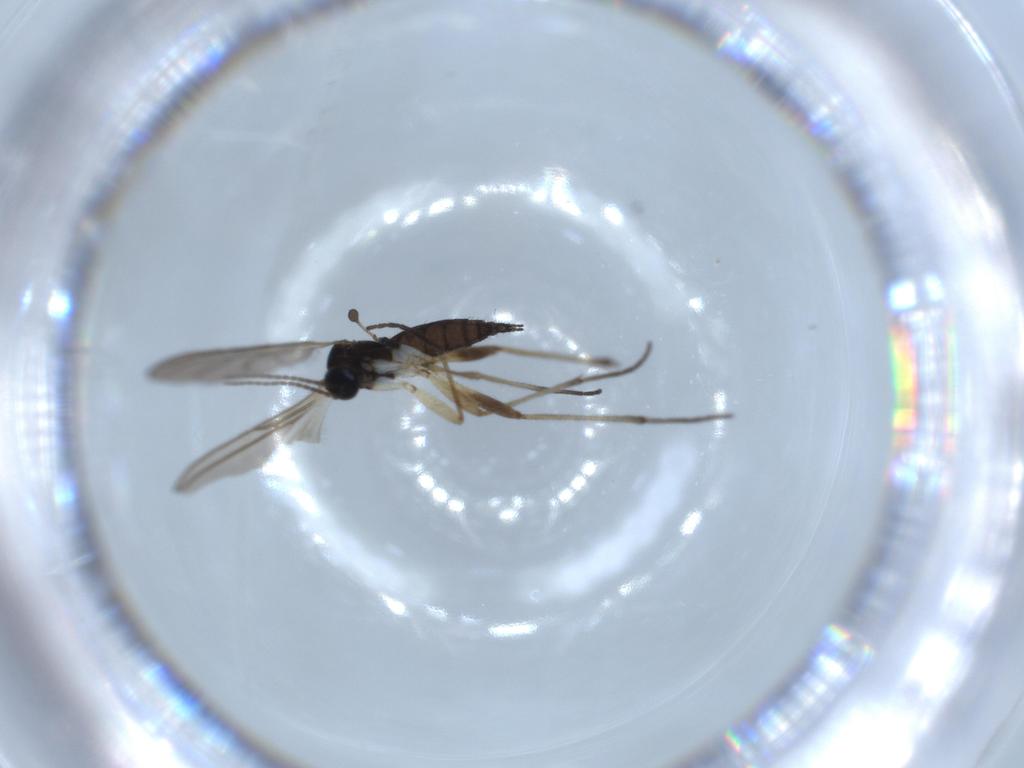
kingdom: Animalia
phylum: Arthropoda
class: Insecta
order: Diptera
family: Sciaridae
